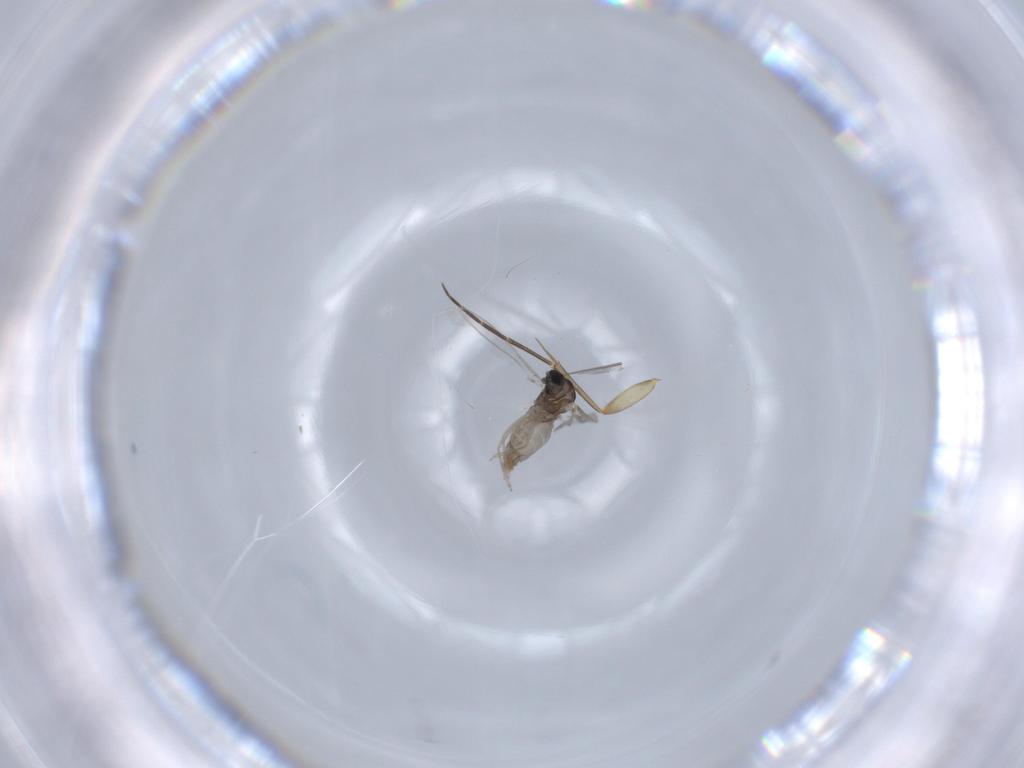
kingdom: Animalia
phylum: Arthropoda
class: Insecta
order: Diptera
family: Cecidomyiidae
